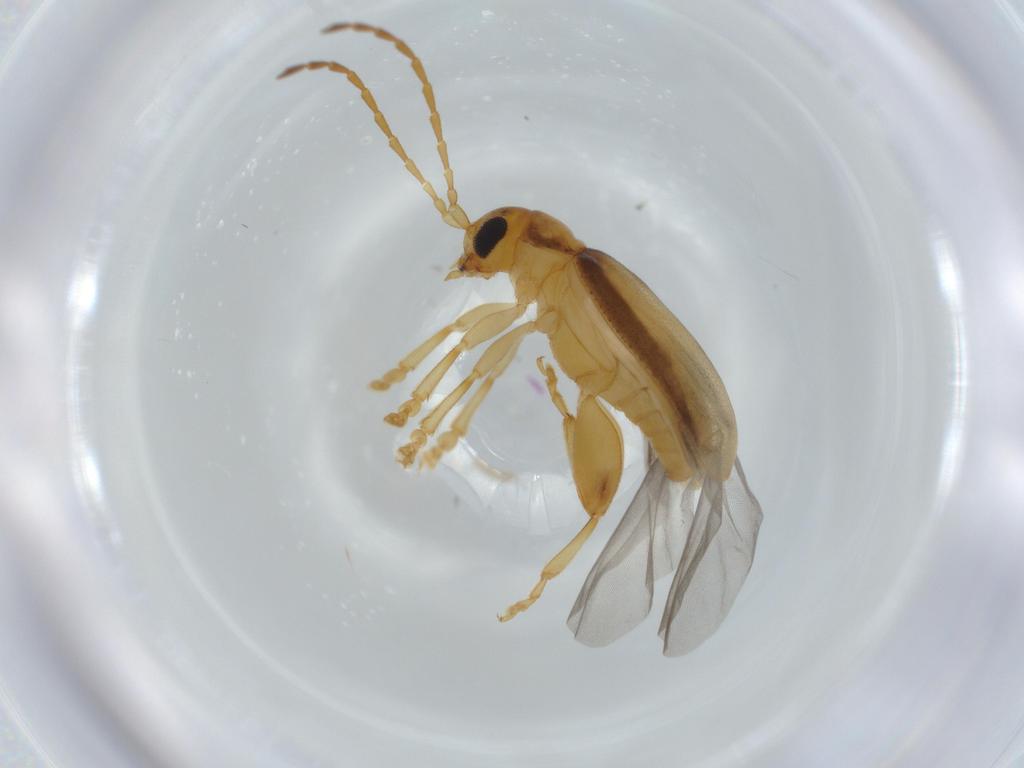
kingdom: Animalia
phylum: Arthropoda
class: Insecta
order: Coleoptera
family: Chrysomelidae
